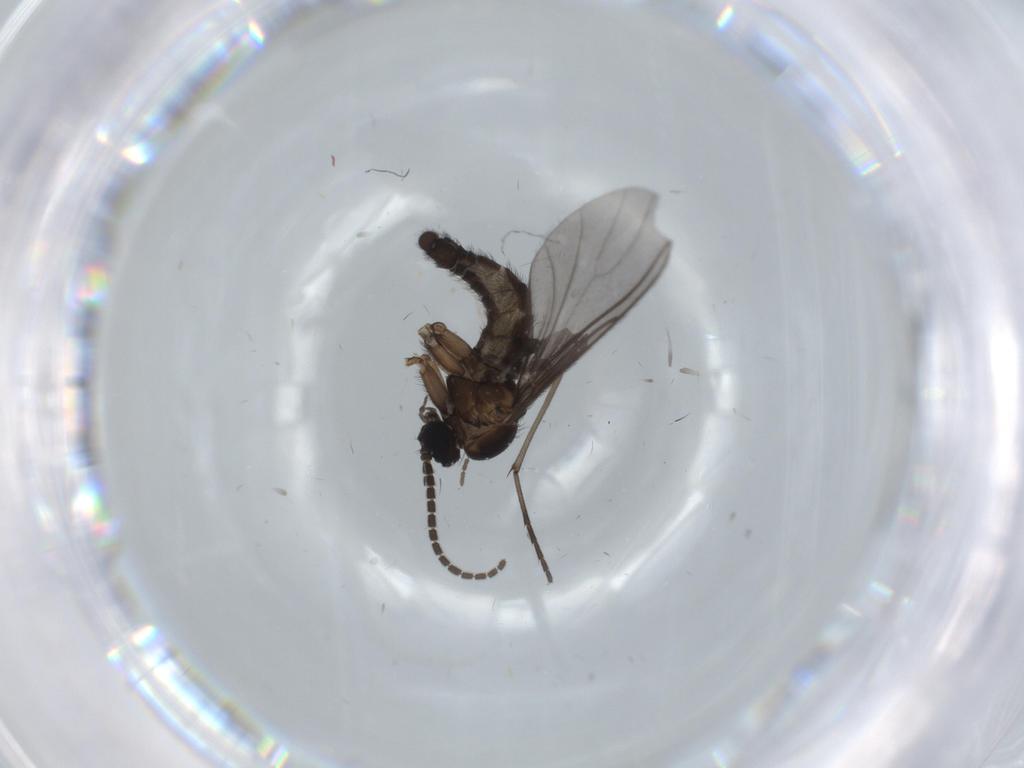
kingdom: Animalia
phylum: Arthropoda
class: Insecta
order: Diptera
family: Sciaridae
